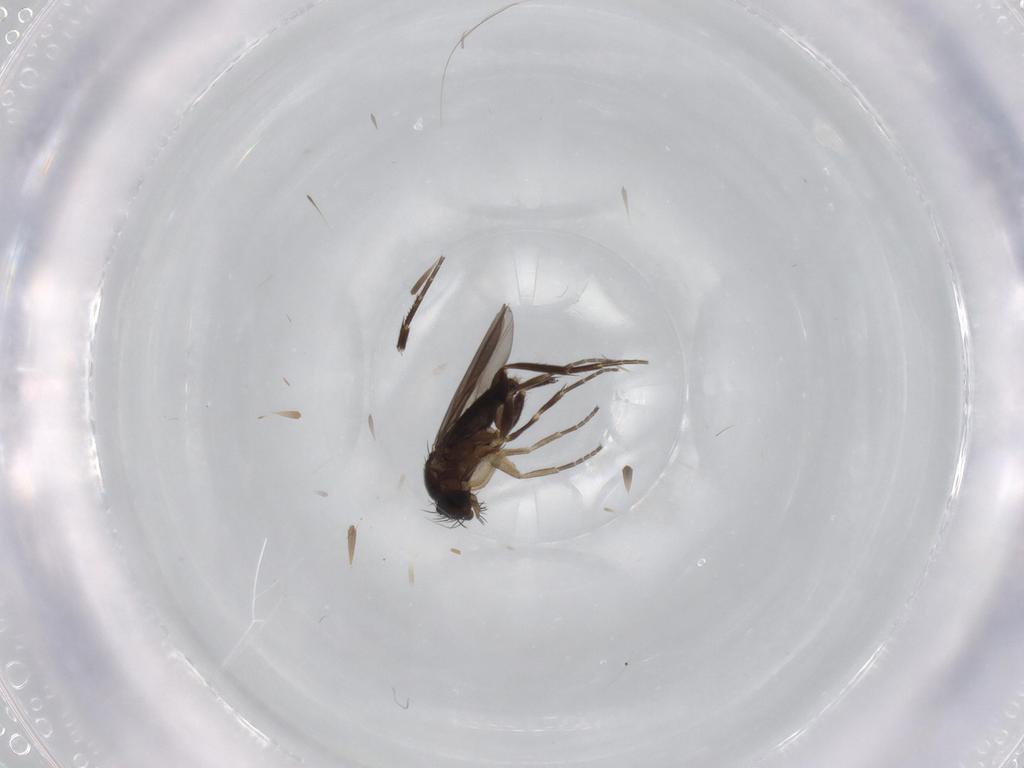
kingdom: Animalia
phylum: Arthropoda
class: Insecta
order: Diptera
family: Phoridae
